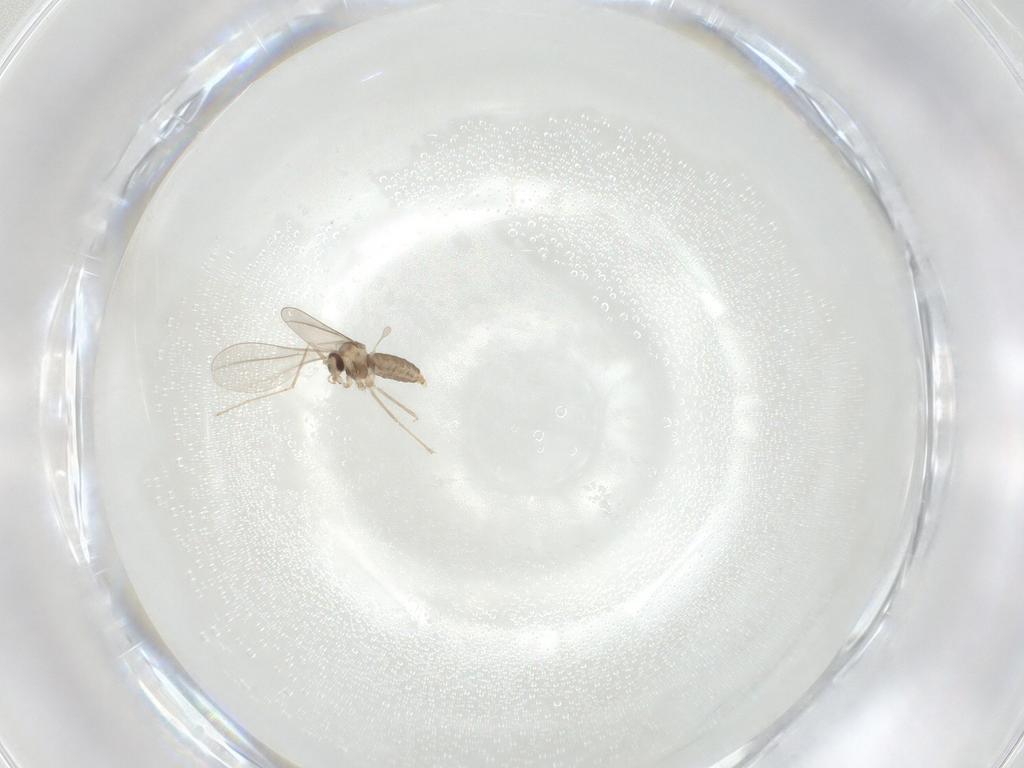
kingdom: Animalia
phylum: Arthropoda
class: Insecta
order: Diptera
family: Cecidomyiidae
